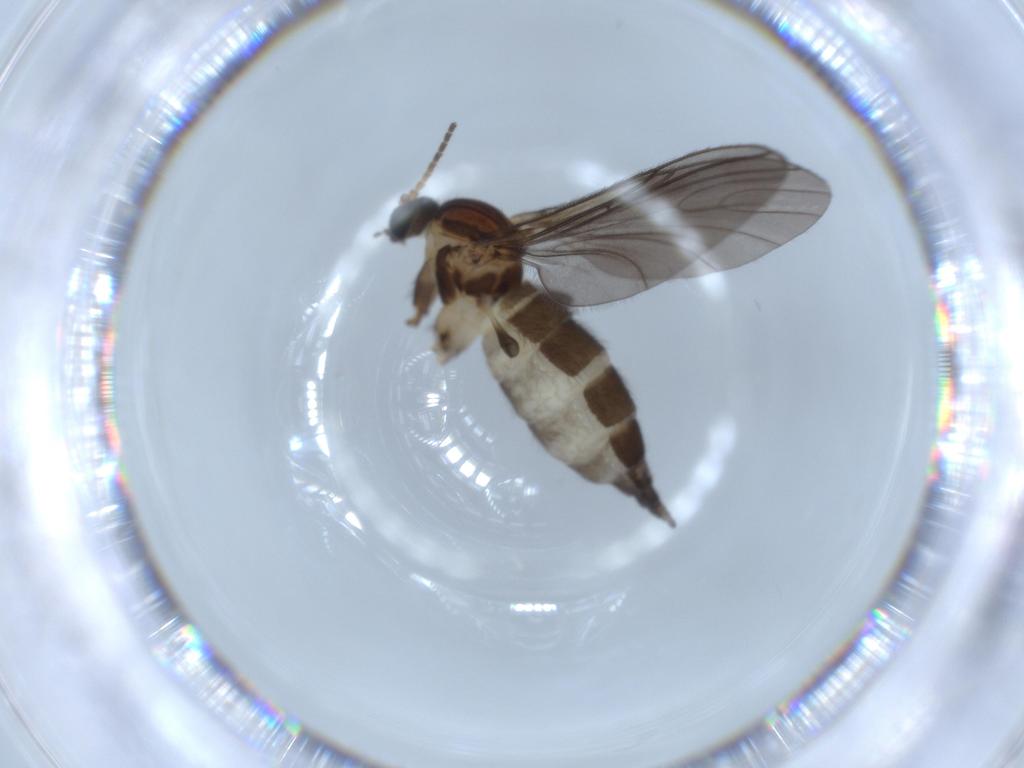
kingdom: Animalia
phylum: Arthropoda
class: Insecta
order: Diptera
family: Sciaridae
